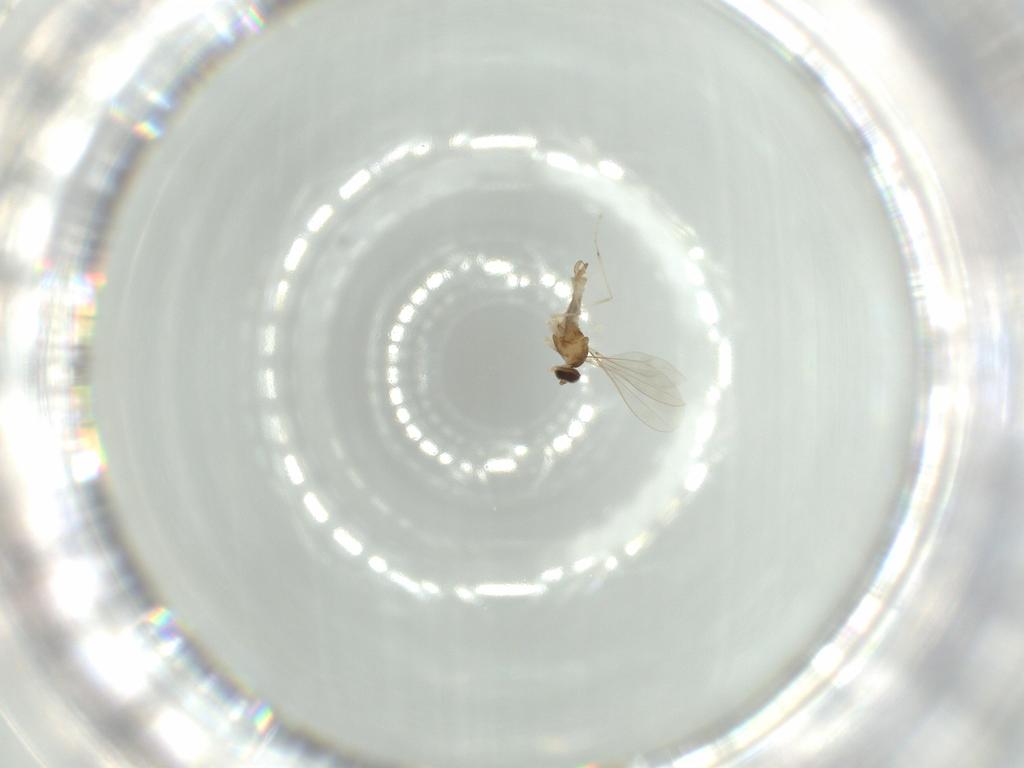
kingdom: Animalia
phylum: Arthropoda
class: Insecta
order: Diptera
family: Cecidomyiidae
